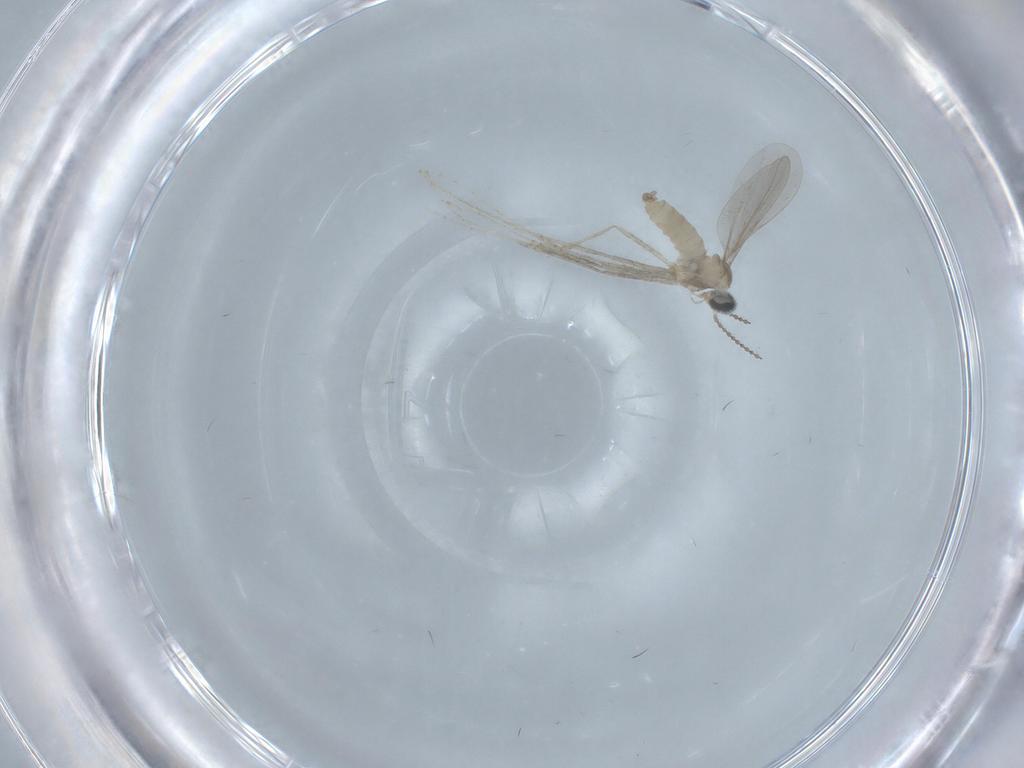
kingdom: Animalia
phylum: Arthropoda
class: Insecta
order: Diptera
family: Cecidomyiidae
